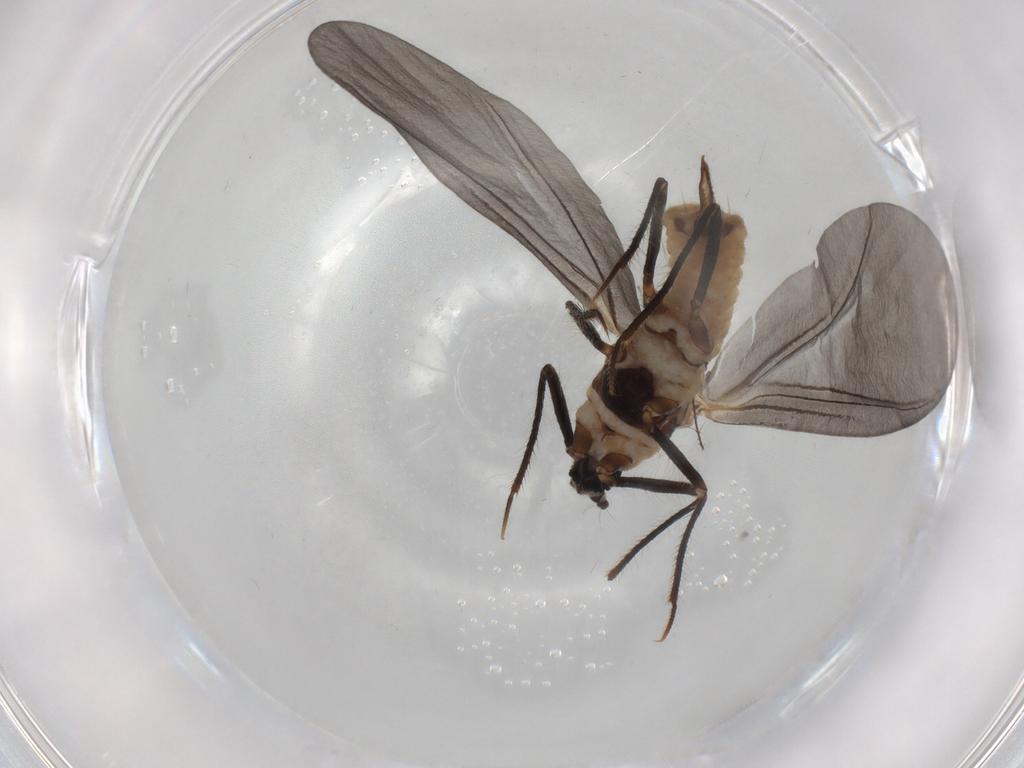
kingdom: Animalia
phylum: Arthropoda
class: Insecta
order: Hemiptera
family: Putoidae
